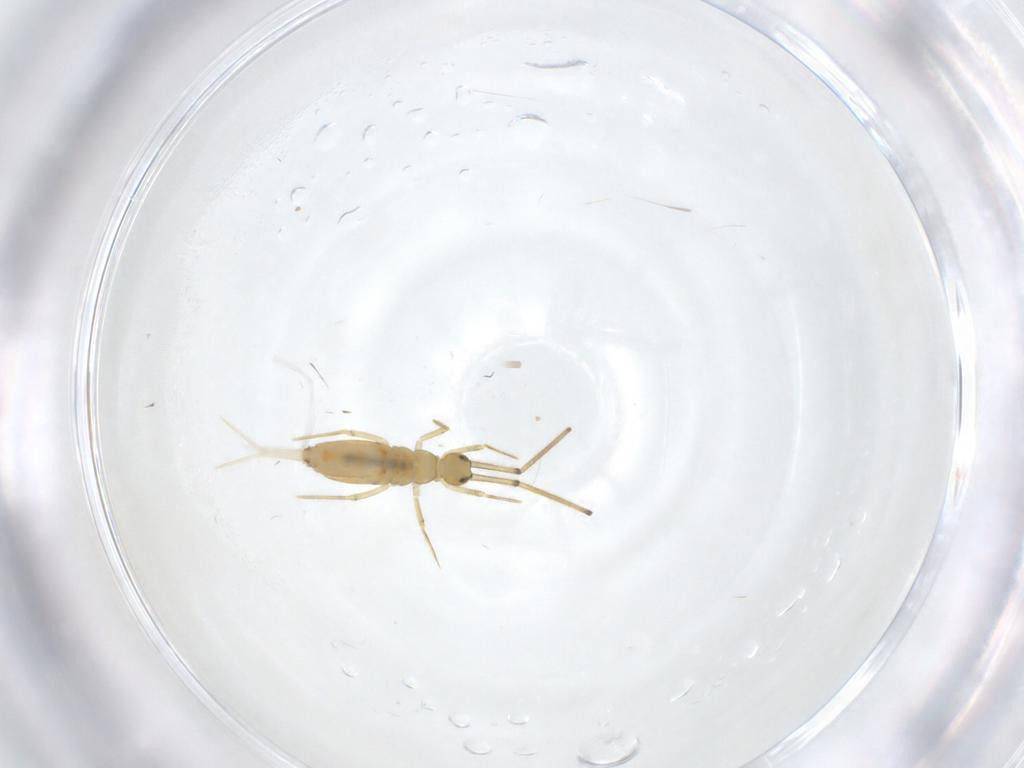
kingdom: Animalia
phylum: Arthropoda
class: Collembola
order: Entomobryomorpha
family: Paronellidae
